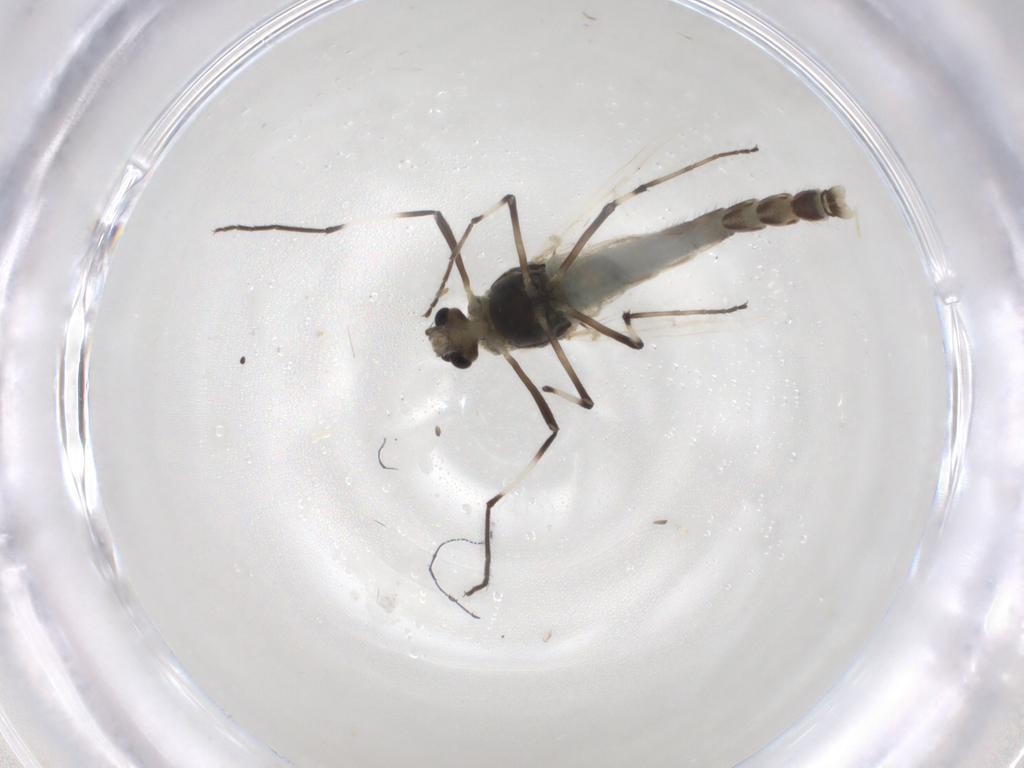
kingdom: Animalia
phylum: Arthropoda
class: Insecta
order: Diptera
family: Chironomidae
